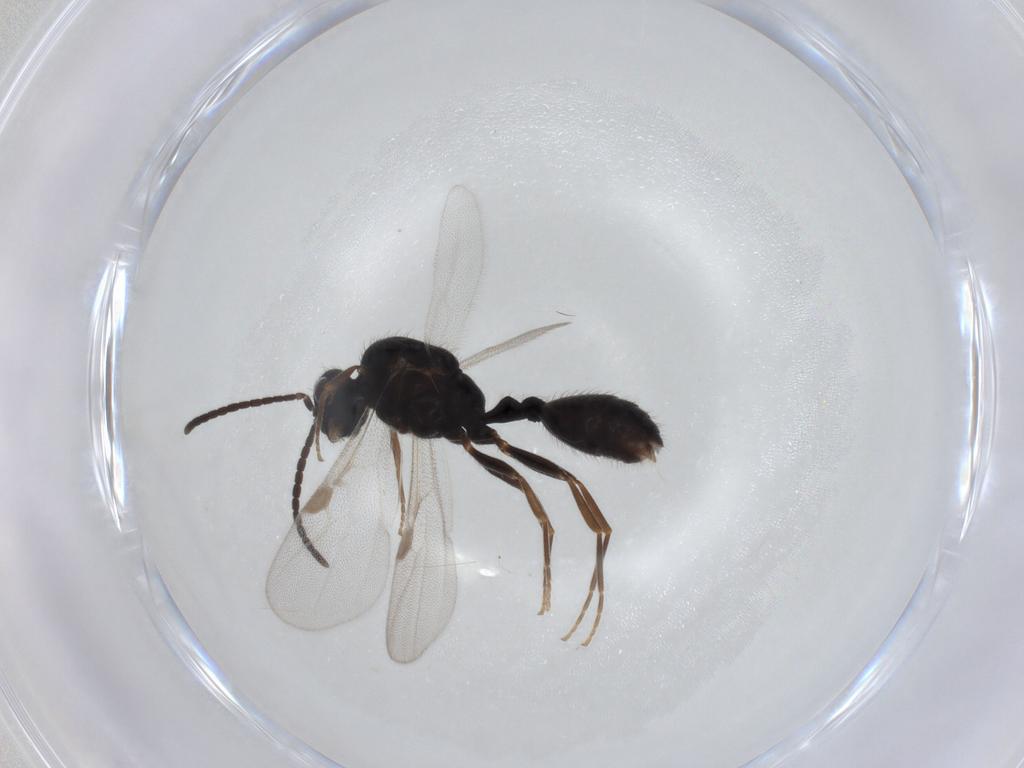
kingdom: Animalia
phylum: Arthropoda
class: Insecta
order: Hymenoptera
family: Formicidae
